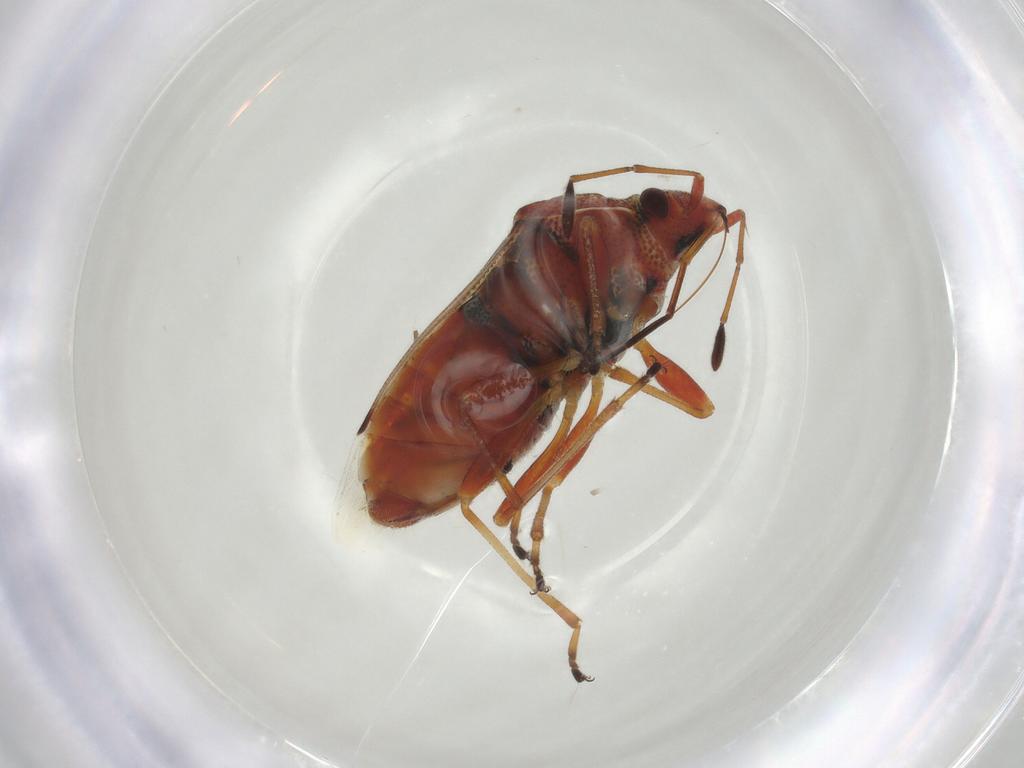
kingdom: Animalia
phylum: Arthropoda
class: Insecta
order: Hemiptera
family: Lygaeidae
